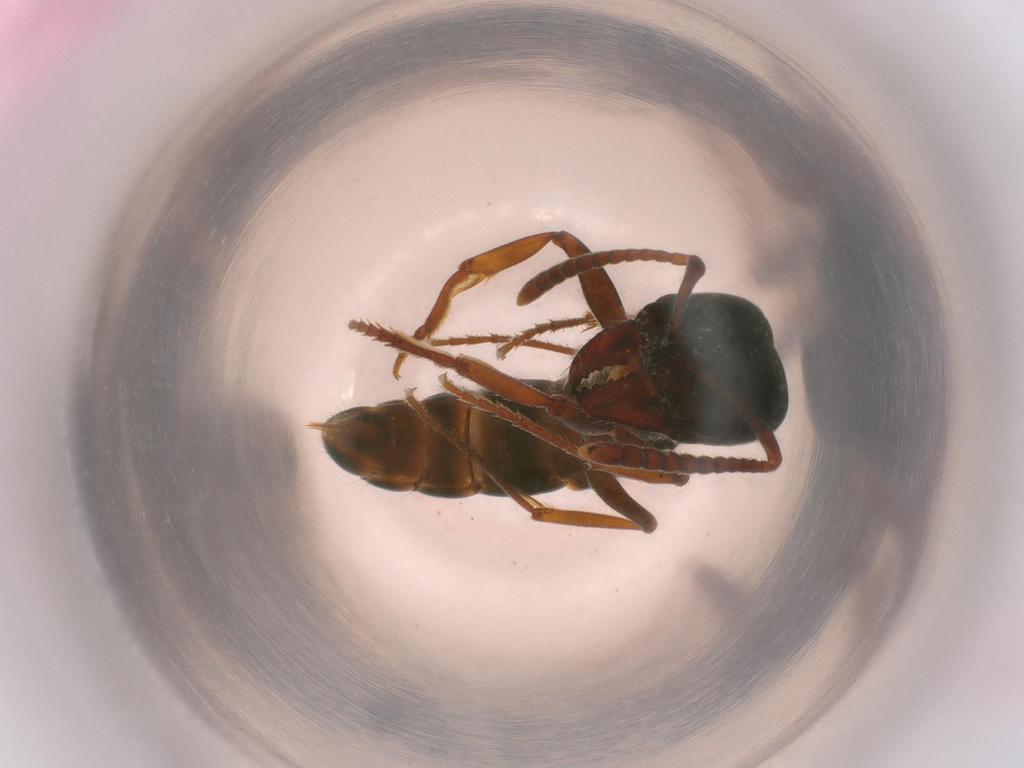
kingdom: Animalia
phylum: Arthropoda
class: Insecta
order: Hymenoptera
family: Formicidae
